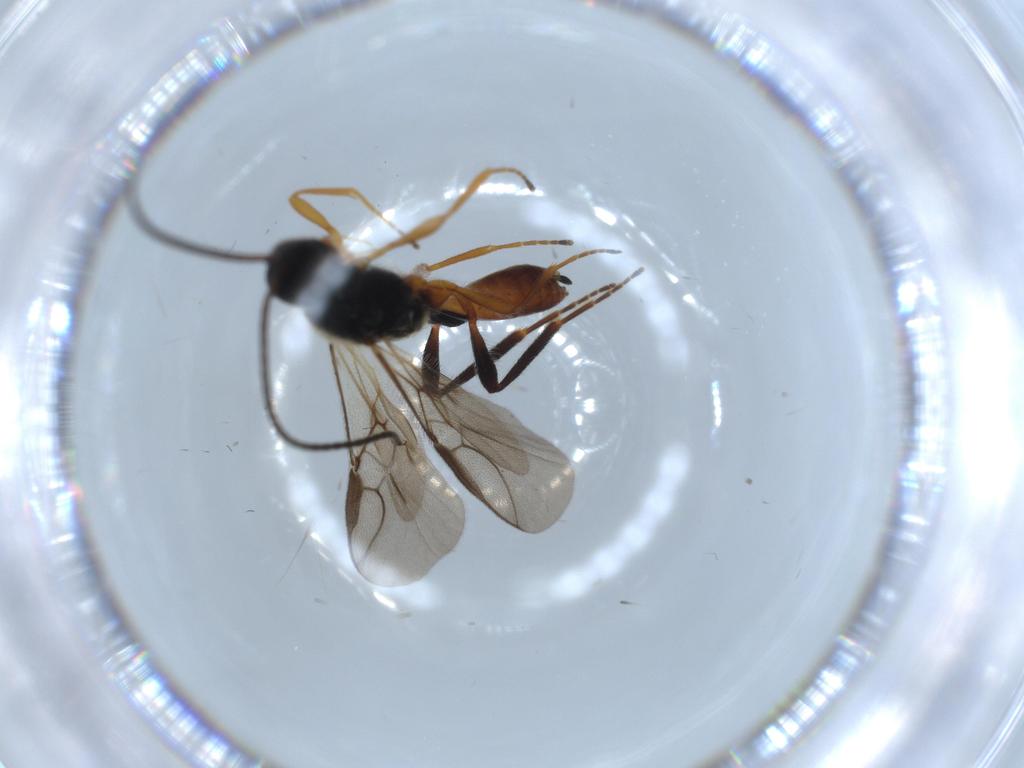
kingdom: Animalia
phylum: Arthropoda
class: Insecta
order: Hymenoptera
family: Braconidae
